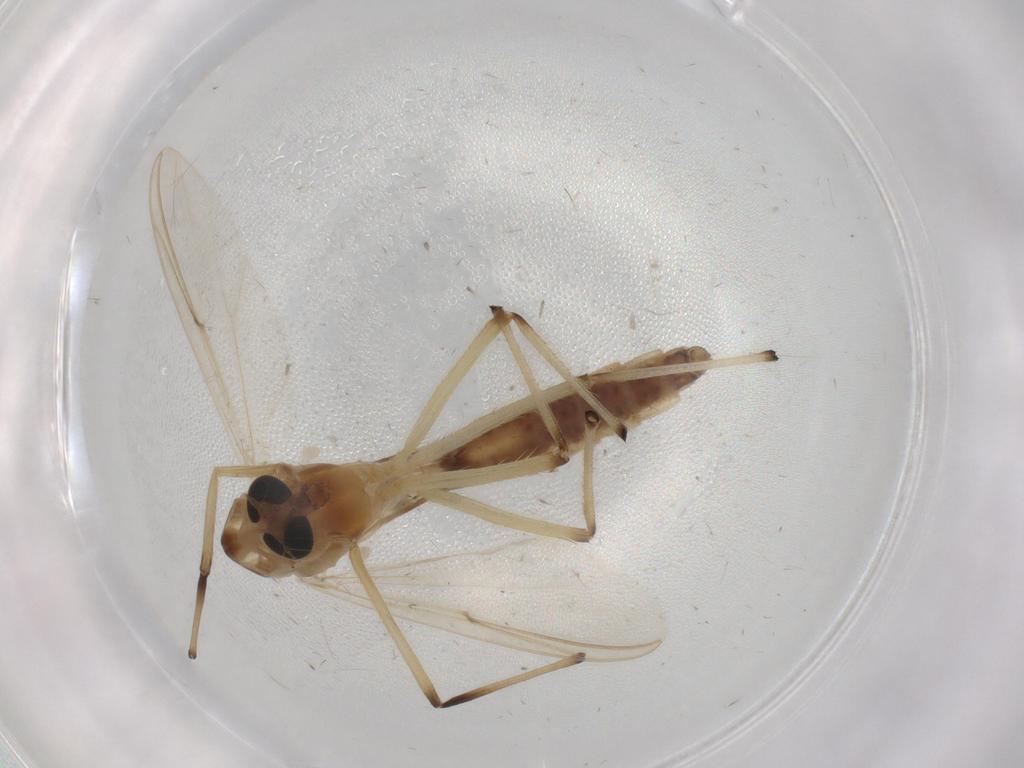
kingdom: Animalia
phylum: Arthropoda
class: Insecta
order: Diptera
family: Chironomidae
